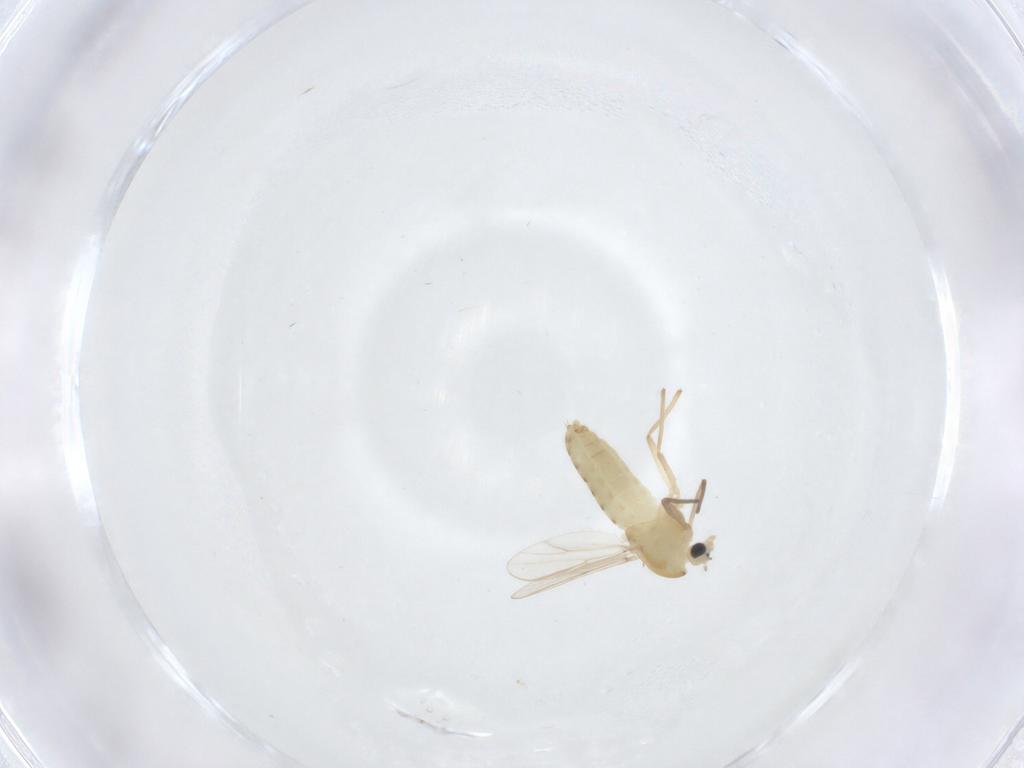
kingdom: Animalia
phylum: Arthropoda
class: Insecta
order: Diptera
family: Chironomidae
